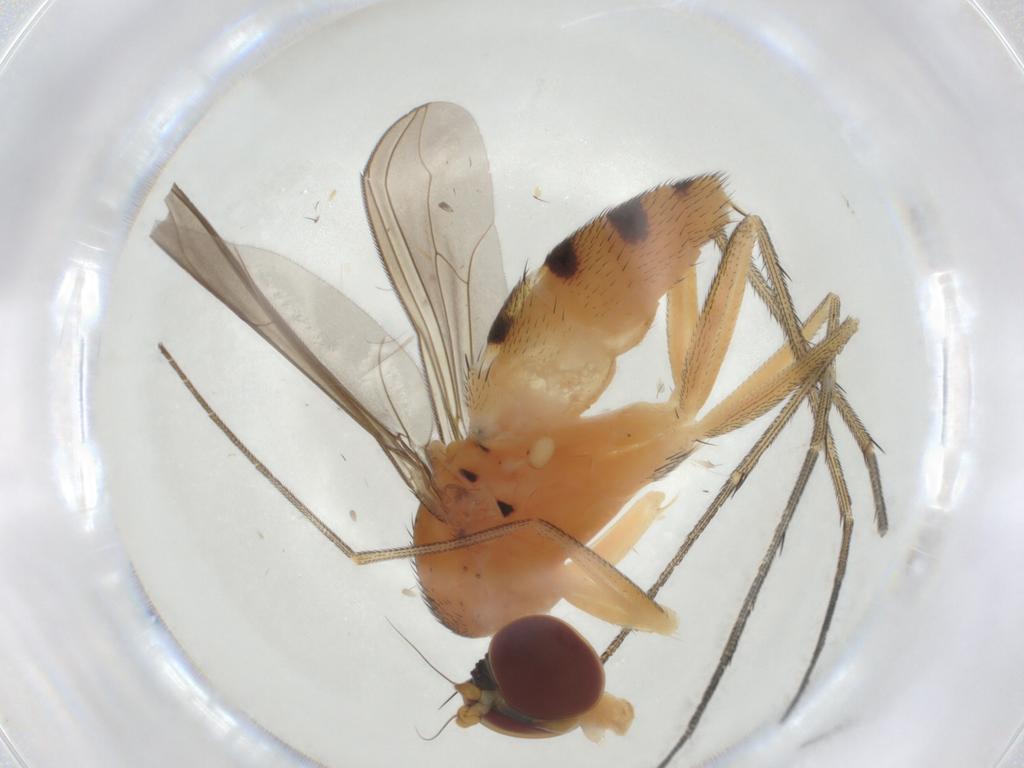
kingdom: Animalia
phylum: Arthropoda
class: Insecta
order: Diptera
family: Dolichopodidae
